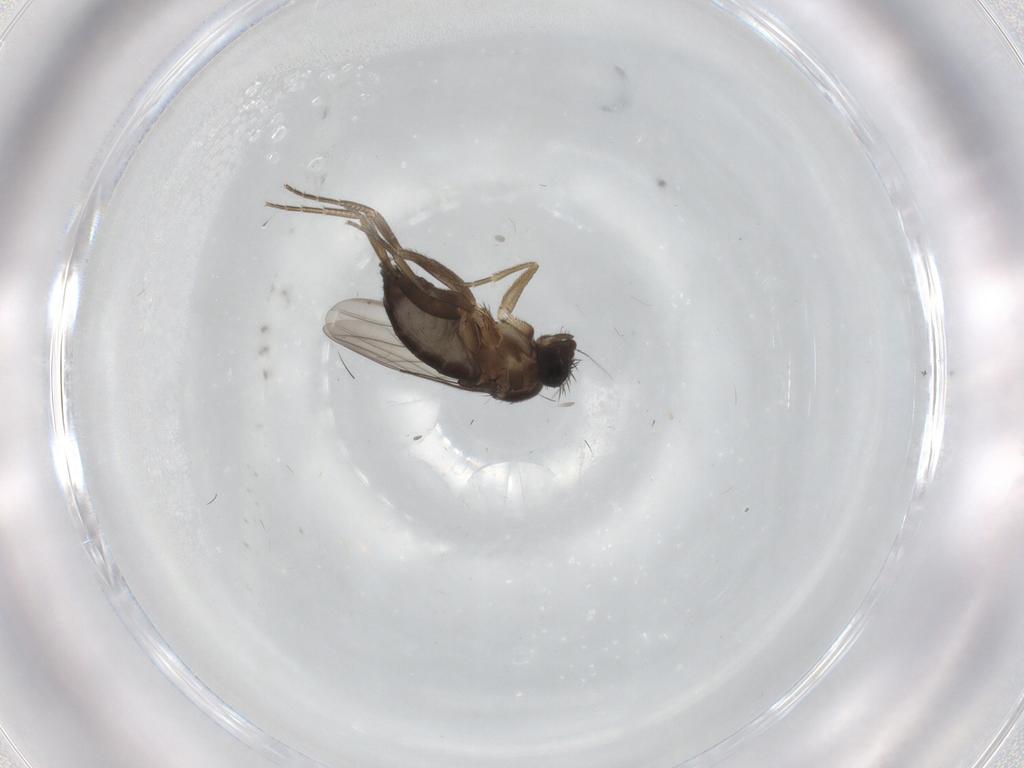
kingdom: Animalia
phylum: Arthropoda
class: Insecta
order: Diptera
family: Phoridae
